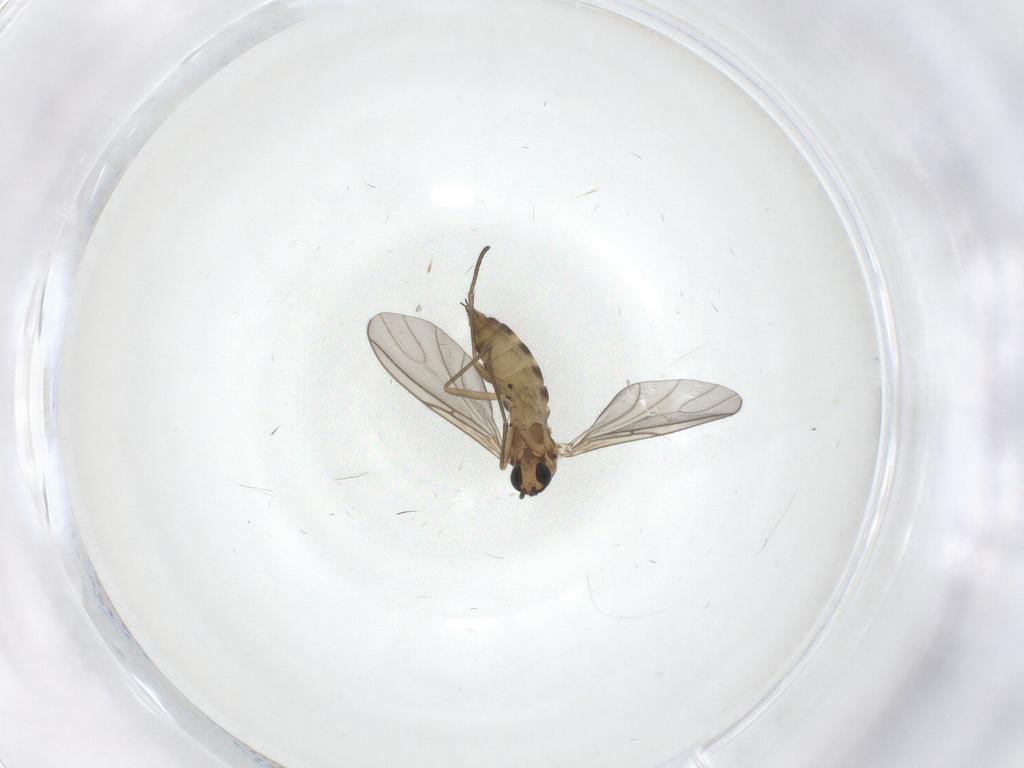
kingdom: Animalia
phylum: Arthropoda
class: Insecta
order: Diptera
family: Sciaridae
